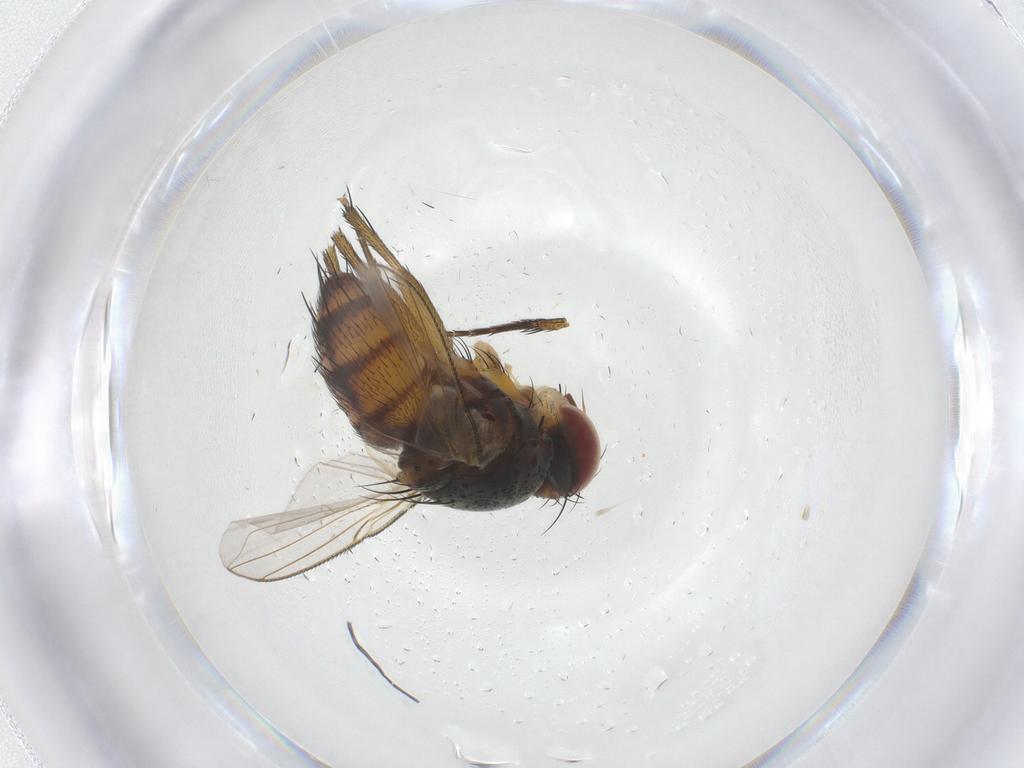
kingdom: Animalia
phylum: Arthropoda
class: Insecta
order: Diptera
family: Tachinidae
